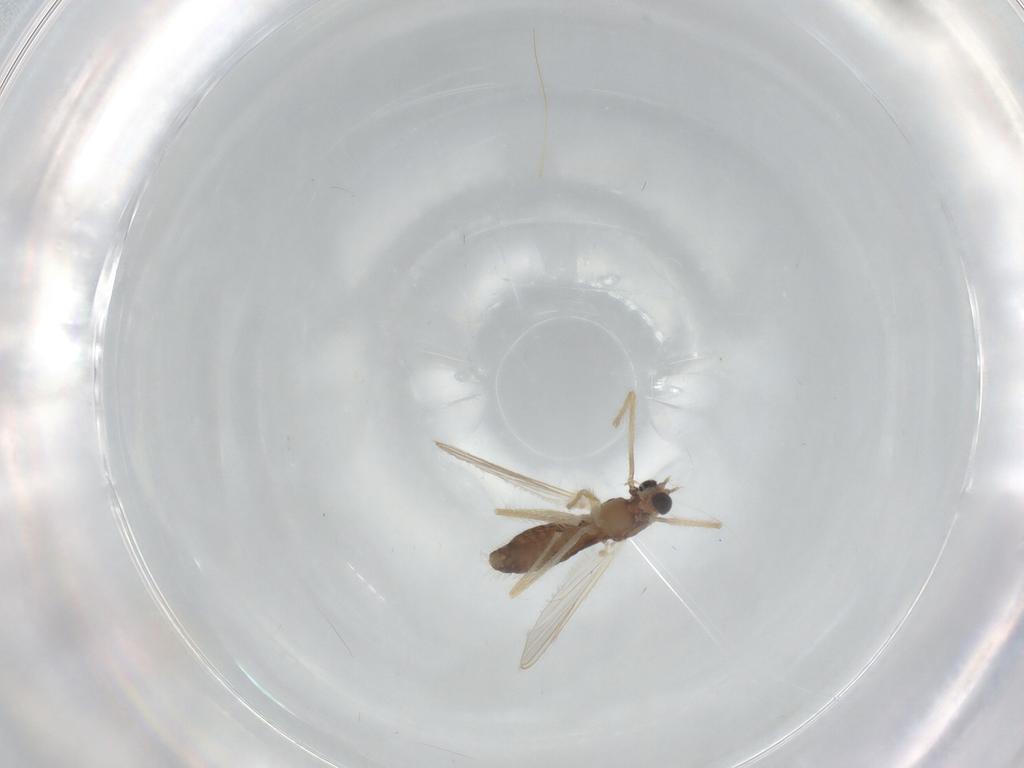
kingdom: Animalia
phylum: Arthropoda
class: Insecta
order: Diptera
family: Chironomidae
